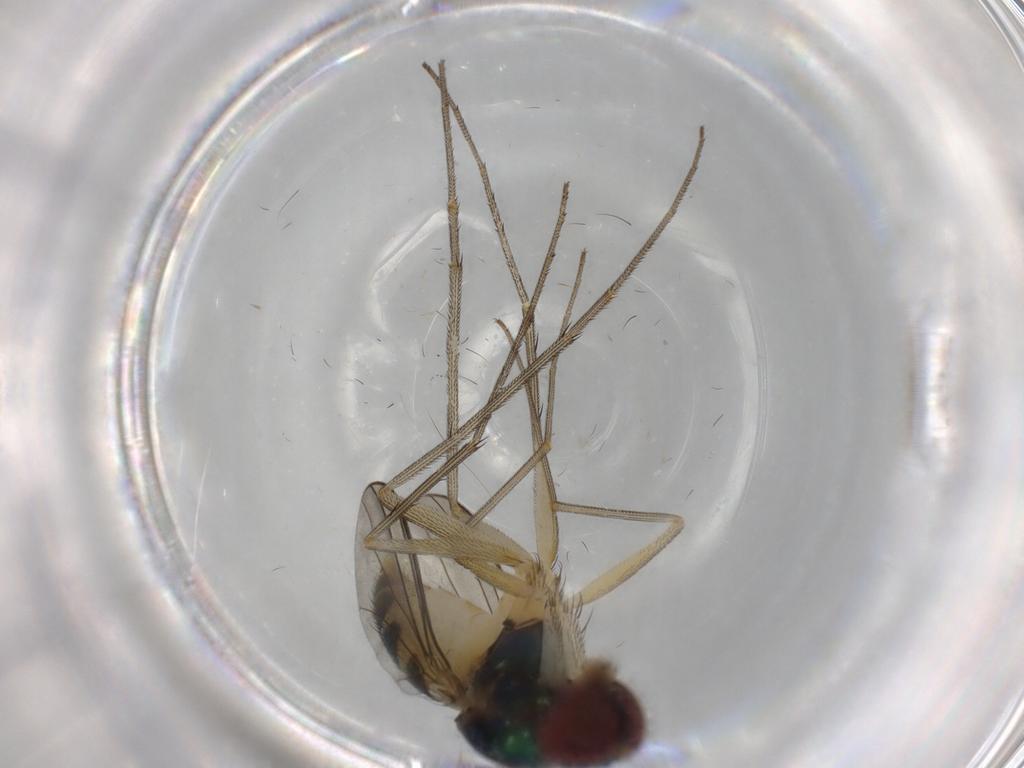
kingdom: Animalia
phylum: Arthropoda
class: Insecta
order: Diptera
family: Dolichopodidae
